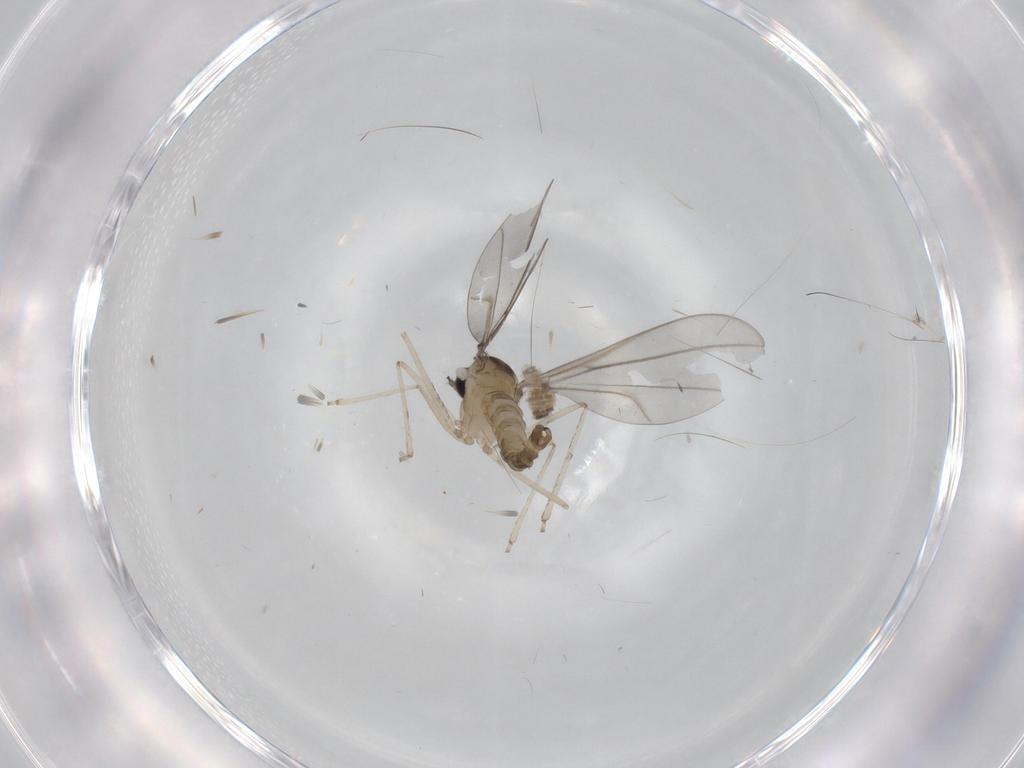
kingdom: Animalia
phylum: Arthropoda
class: Insecta
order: Diptera
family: Cecidomyiidae
